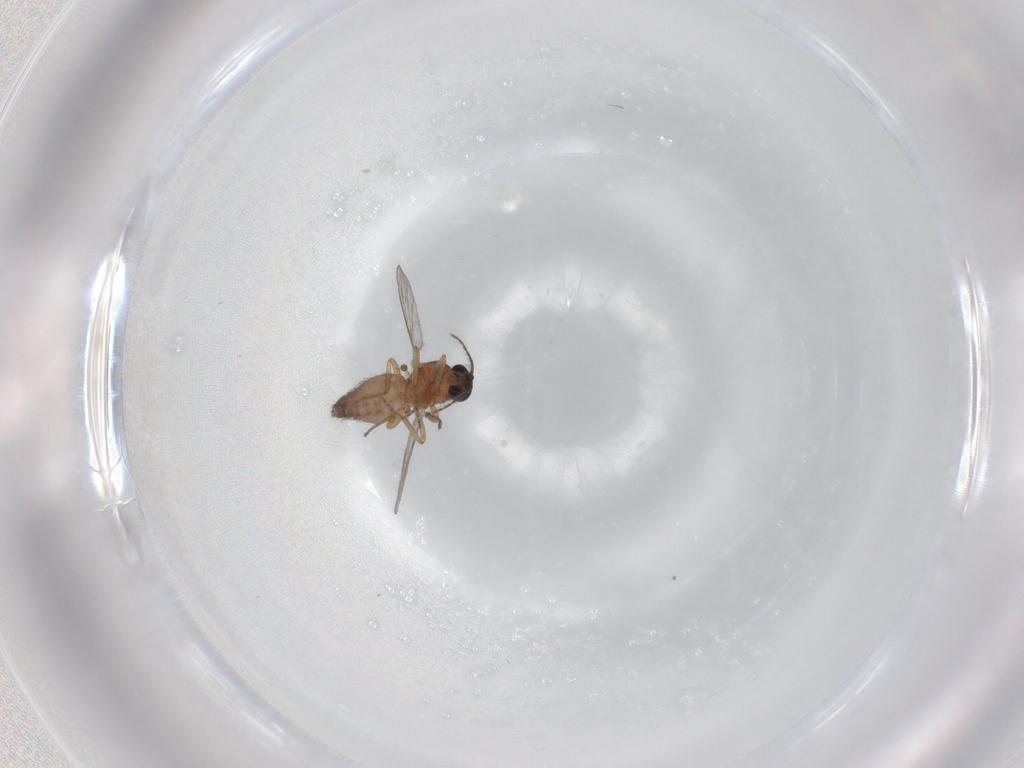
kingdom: Animalia
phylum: Arthropoda
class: Insecta
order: Diptera
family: Ceratopogonidae
